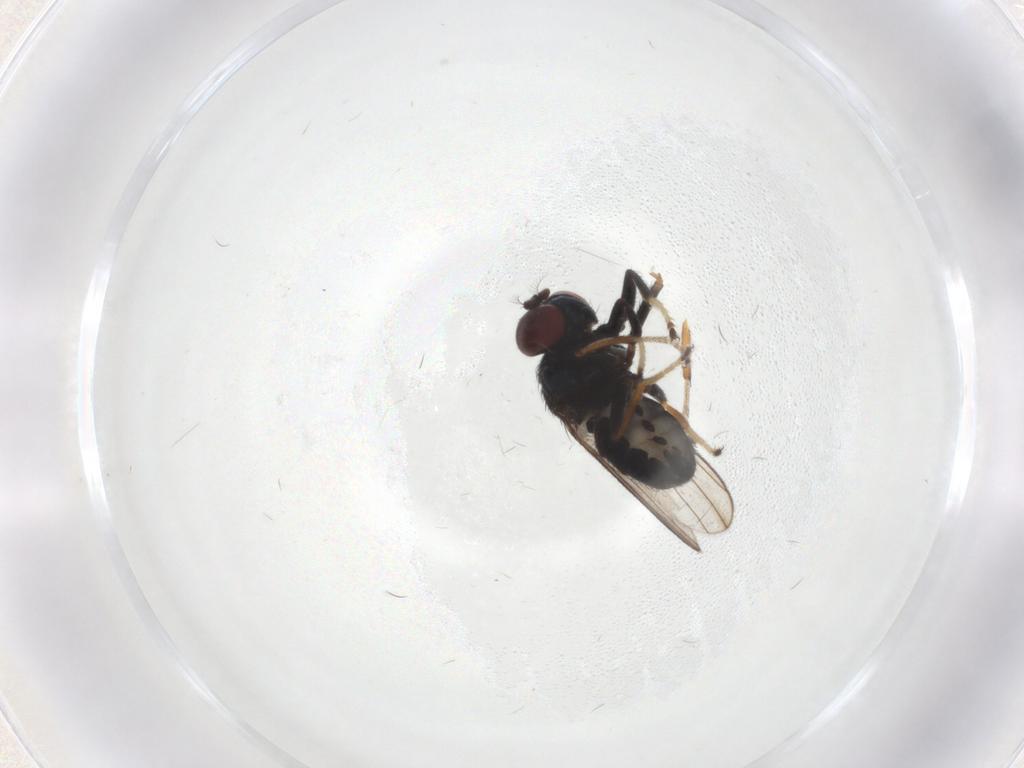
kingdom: Animalia
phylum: Arthropoda
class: Insecta
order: Diptera
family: Ephydridae
